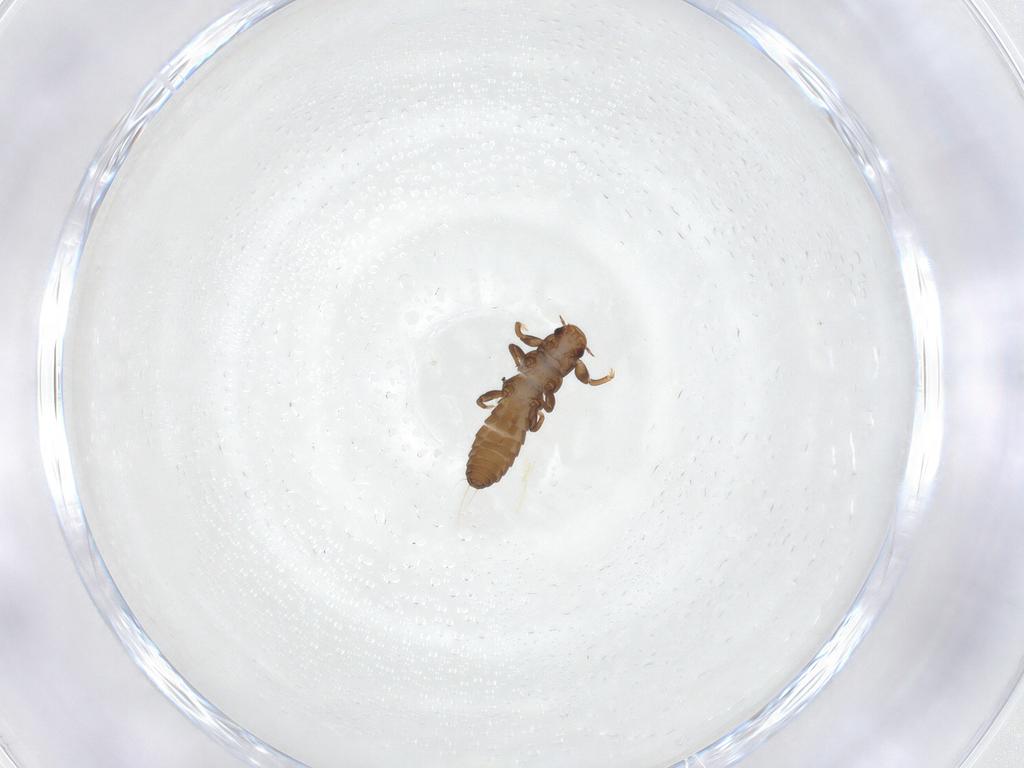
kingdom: Animalia
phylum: Arthropoda
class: Insecta
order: Coleoptera
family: Meloidae
